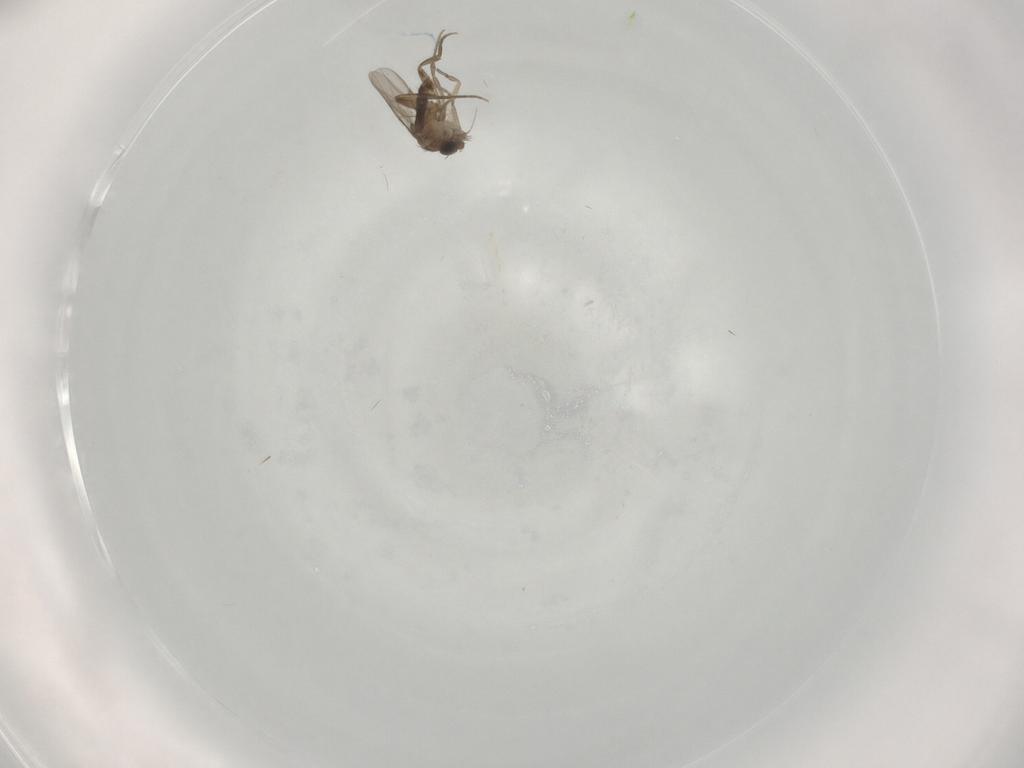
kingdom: Animalia
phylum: Arthropoda
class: Insecta
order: Diptera
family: Phoridae
